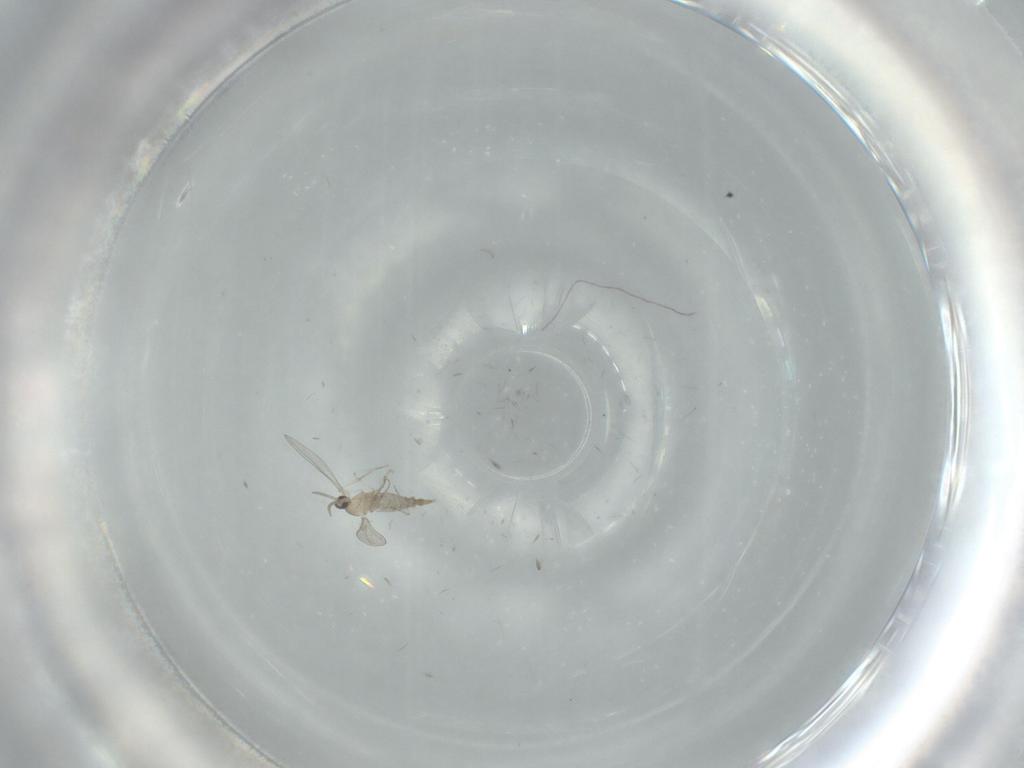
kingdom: Animalia
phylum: Arthropoda
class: Insecta
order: Diptera
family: Cecidomyiidae
